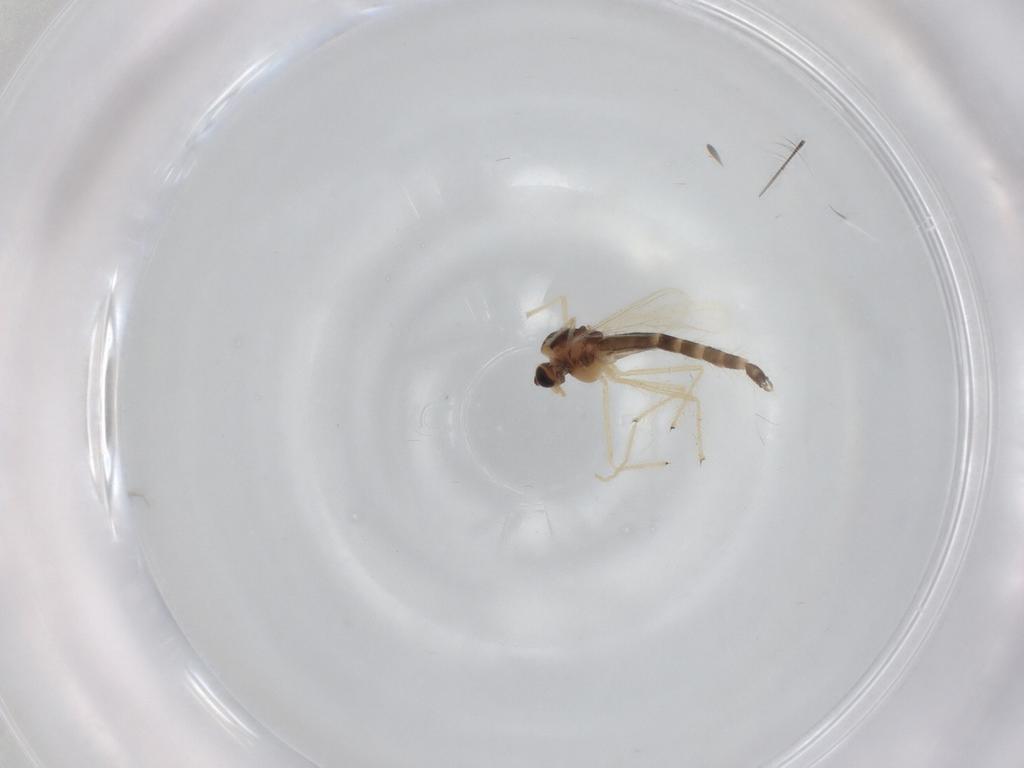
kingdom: Animalia
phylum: Arthropoda
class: Insecta
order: Diptera
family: Chironomidae
